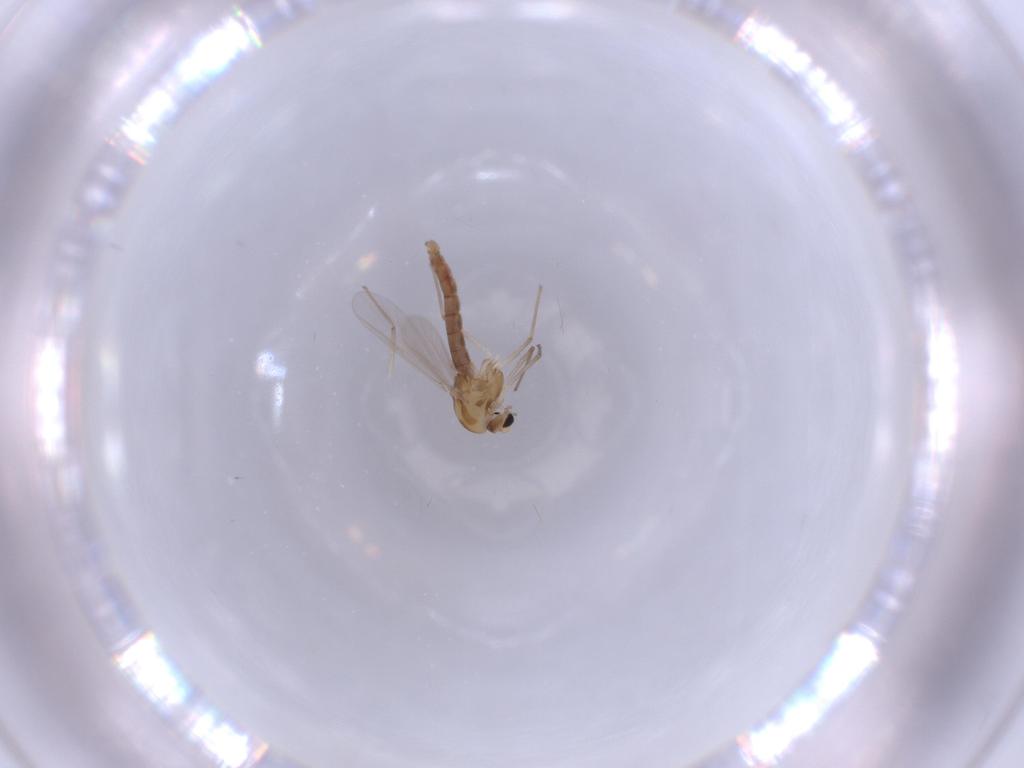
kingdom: Animalia
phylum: Arthropoda
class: Insecta
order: Diptera
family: Chironomidae
